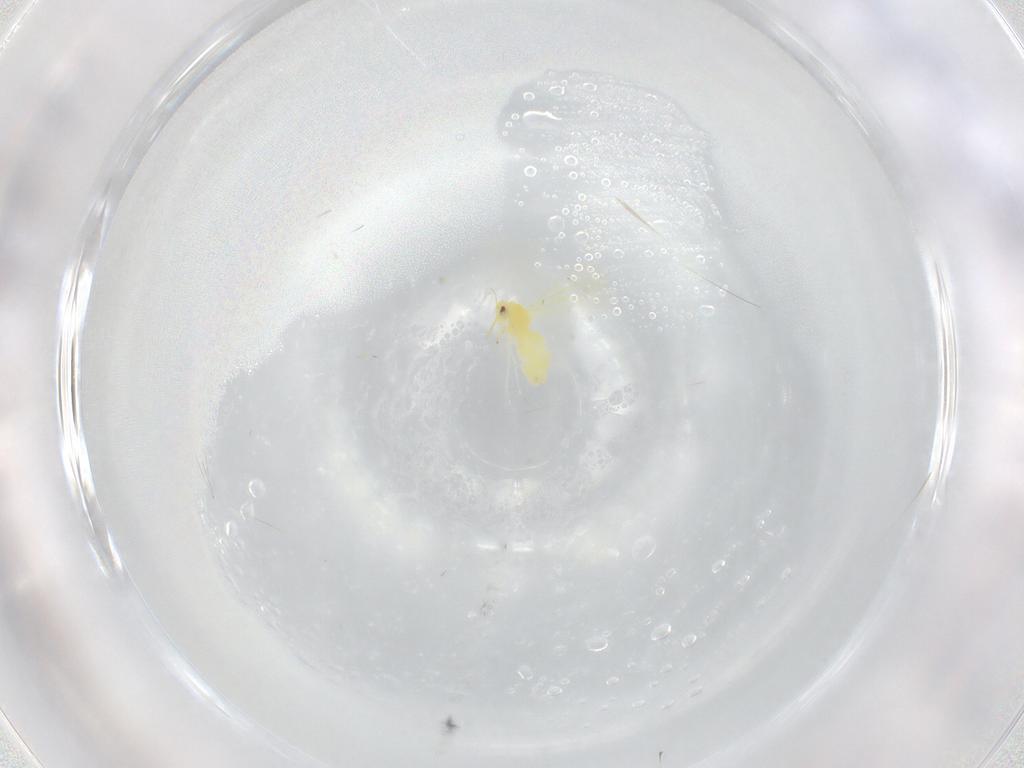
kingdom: Animalia
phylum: Arthropoda
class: Insecta
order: Hemiptera
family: Aleyrodidae
